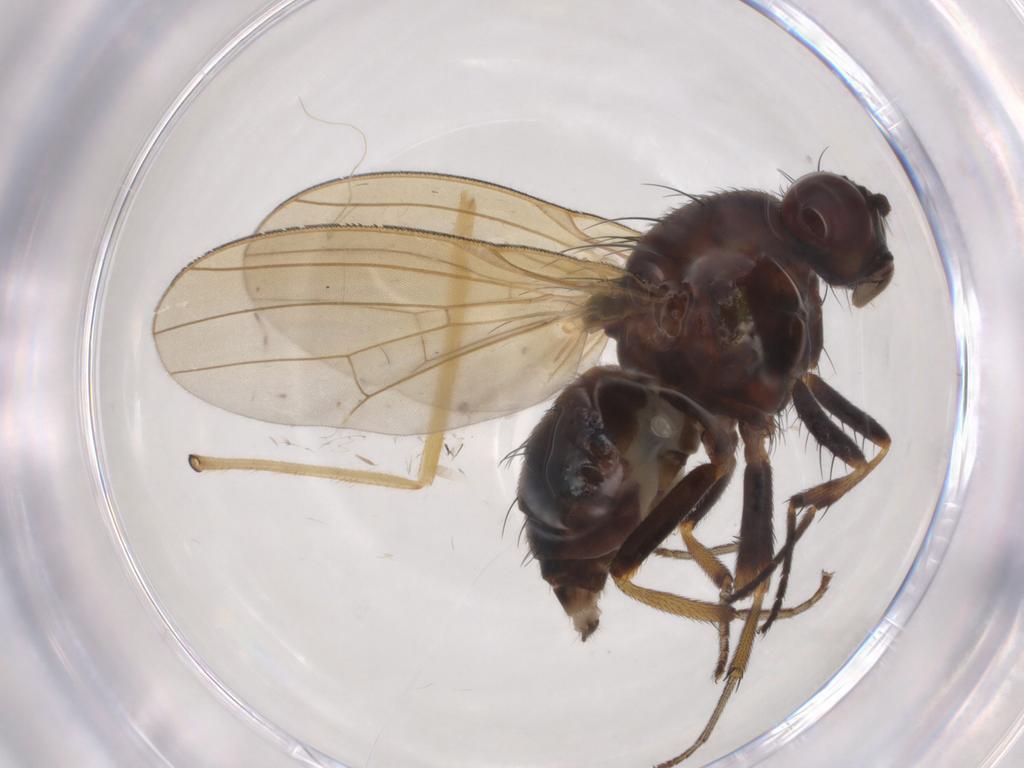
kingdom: Animalia
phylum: Arthropoda
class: Insecta
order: Diptera
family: Lauxaniidae
